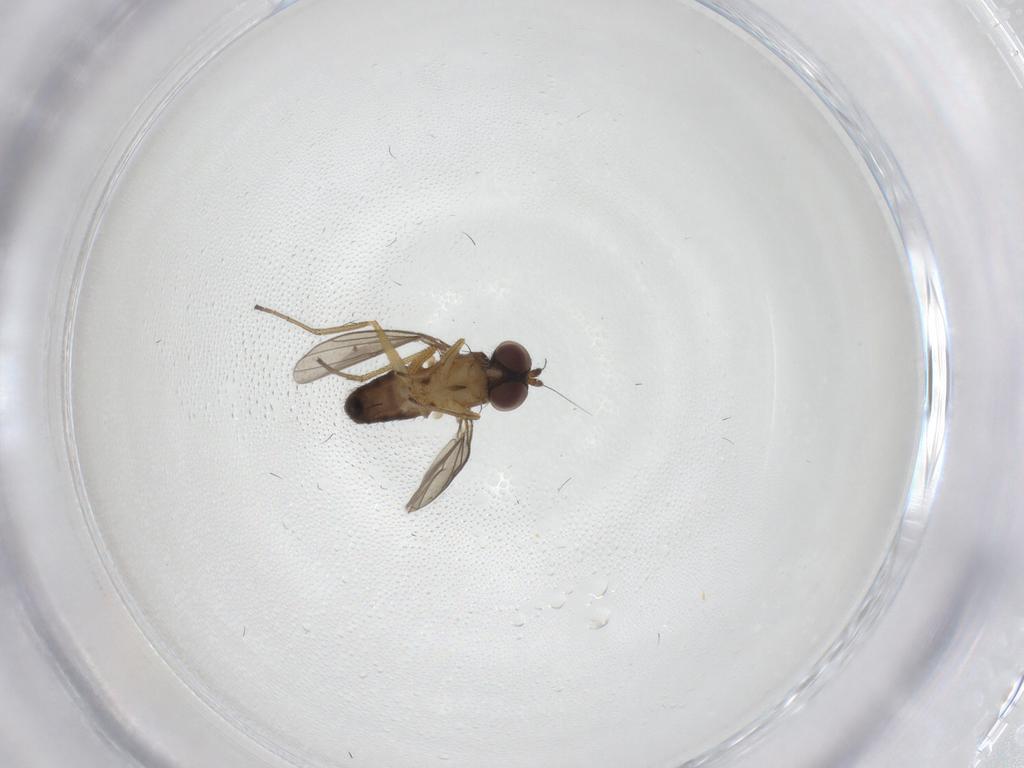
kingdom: Animalia
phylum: Arthropoda
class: Insecta
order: Diptera
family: Dolichopodidae
